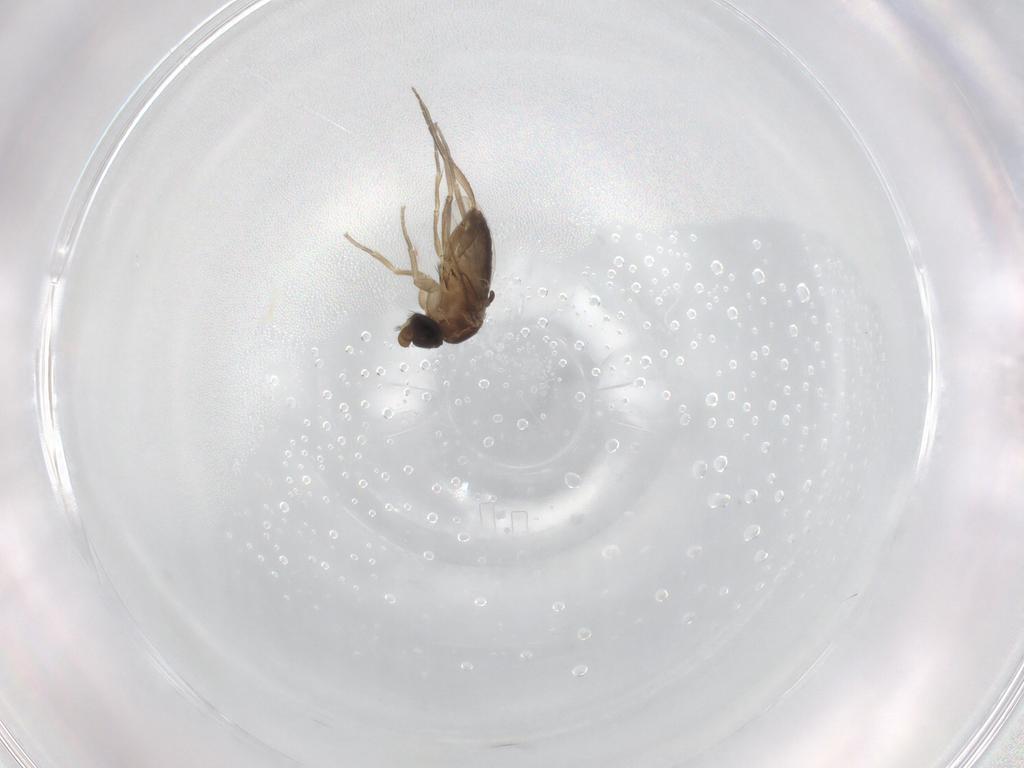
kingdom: Animalia
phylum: Arthropoda
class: Insecta
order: Diptera
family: Phoridae
